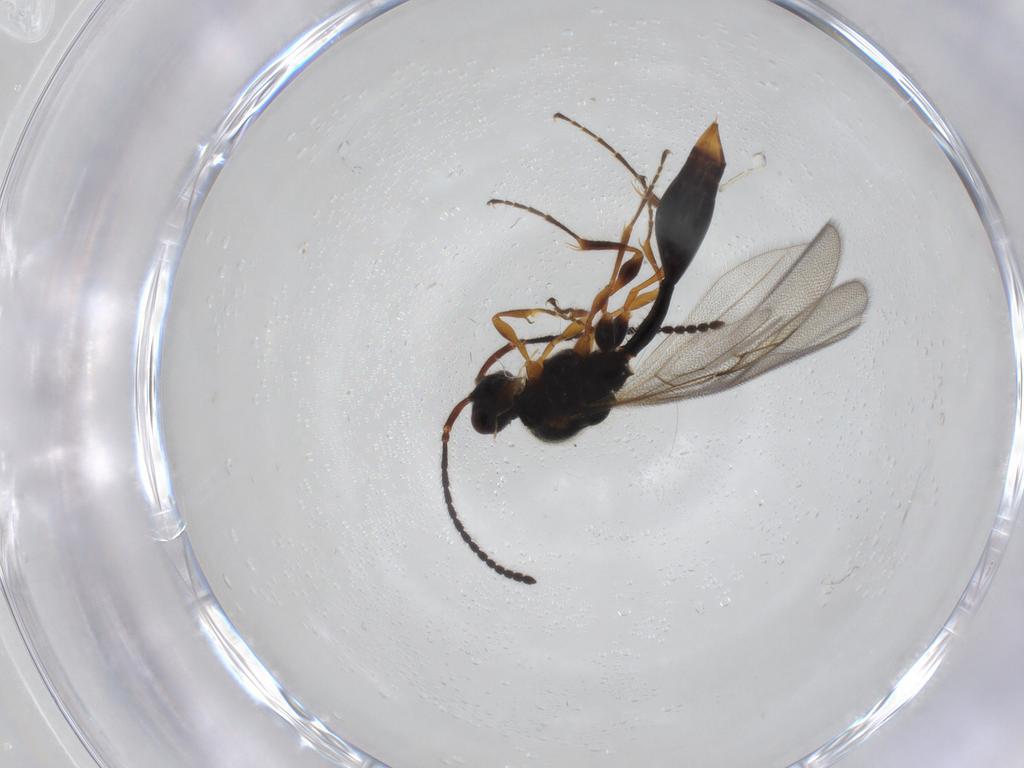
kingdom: Animalia
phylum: Arthropoda
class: Insecta
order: Hymenoptera
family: Diapriidae
